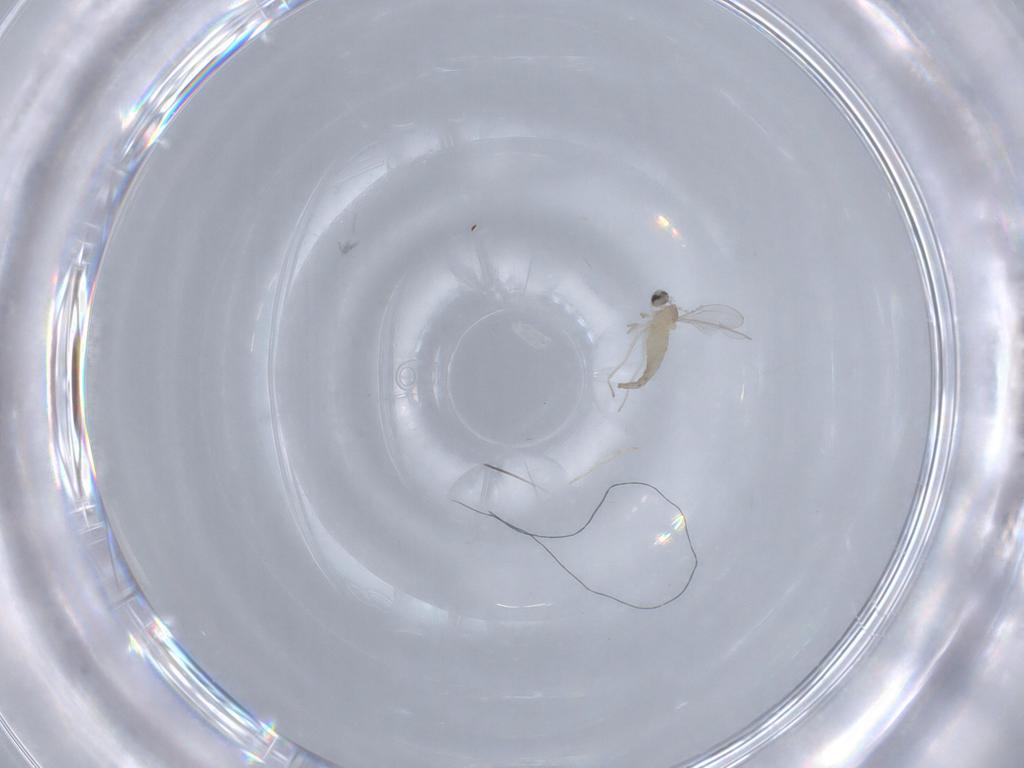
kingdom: Animalia
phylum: Arthropoda
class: Insecta
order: Diptera
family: Cecidomyiidae
